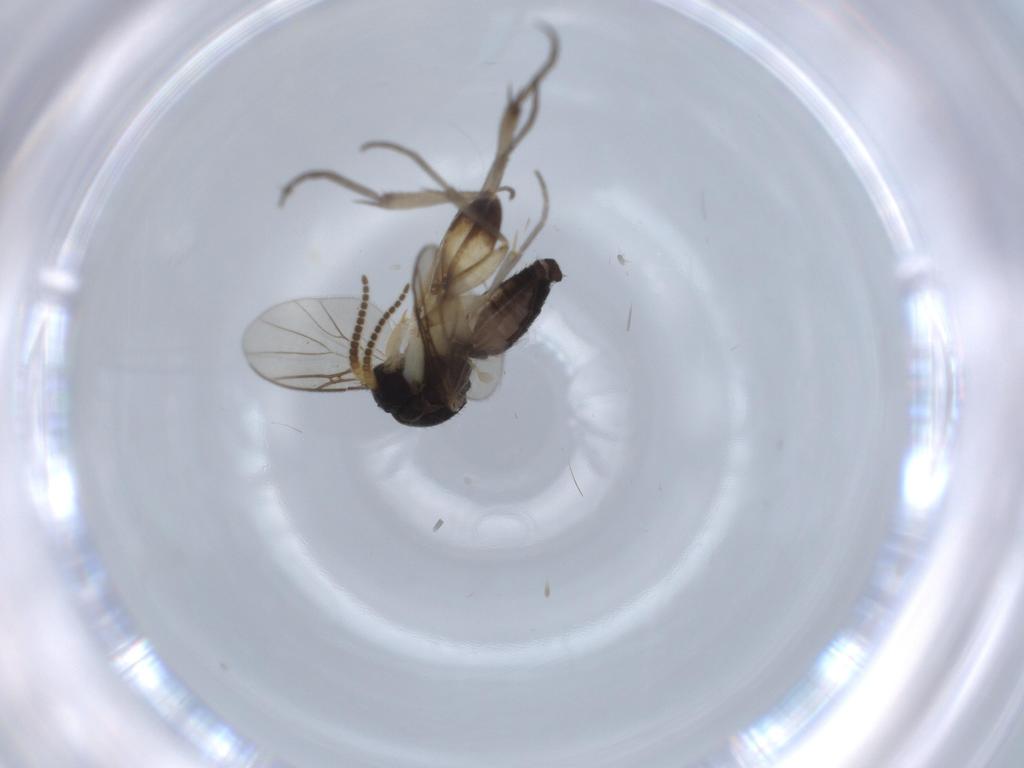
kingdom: Animalia
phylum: Arthropoda
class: Insecta
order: Diptera
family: Mycetophilidae
